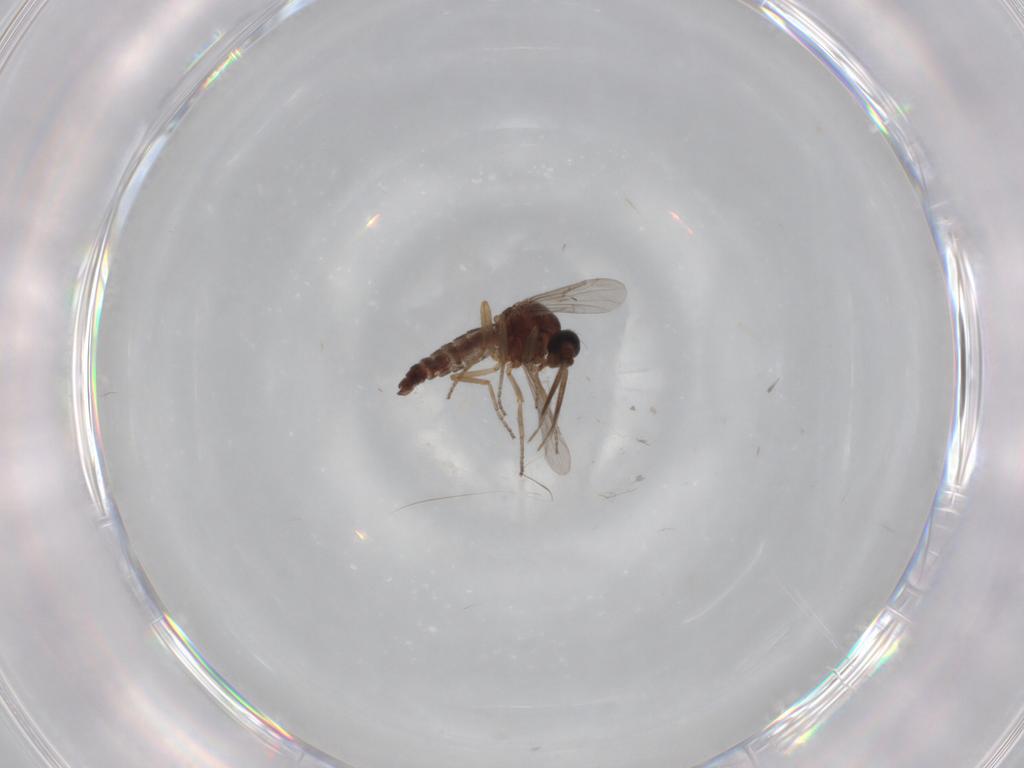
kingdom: Animalia
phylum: Arthropoda
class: Insecta
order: Diptera
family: Ceratopogonidae
